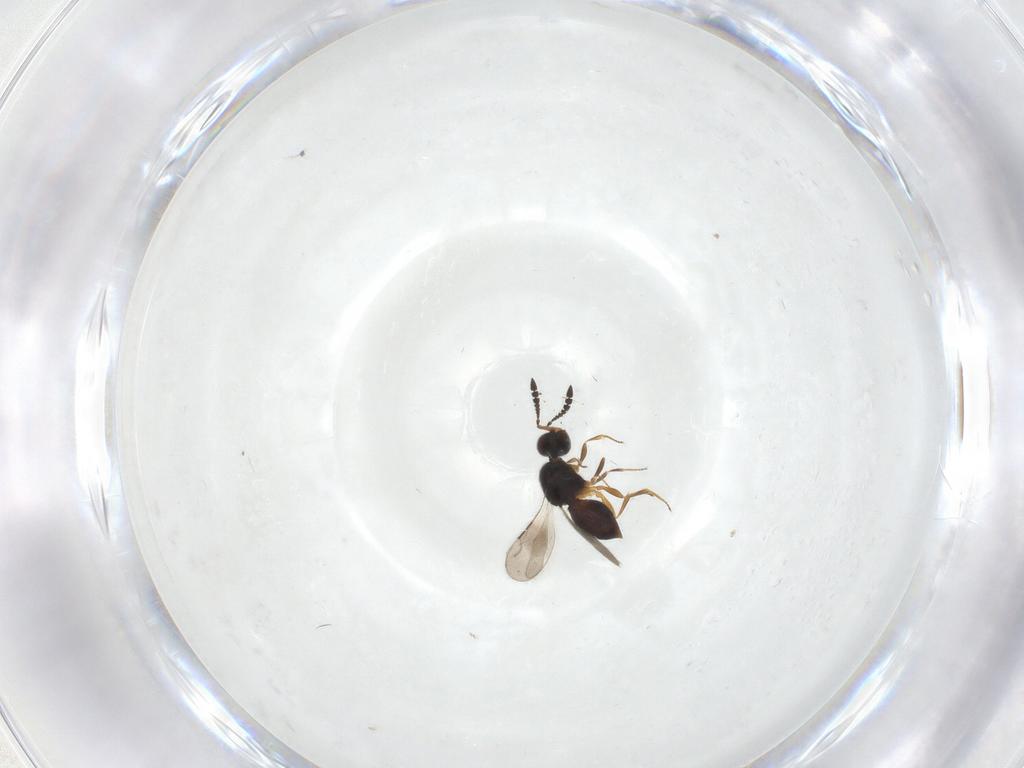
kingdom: Animalia
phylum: Arthropoda
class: Insecta
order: Hymenoptera
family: Ceraphronidae
